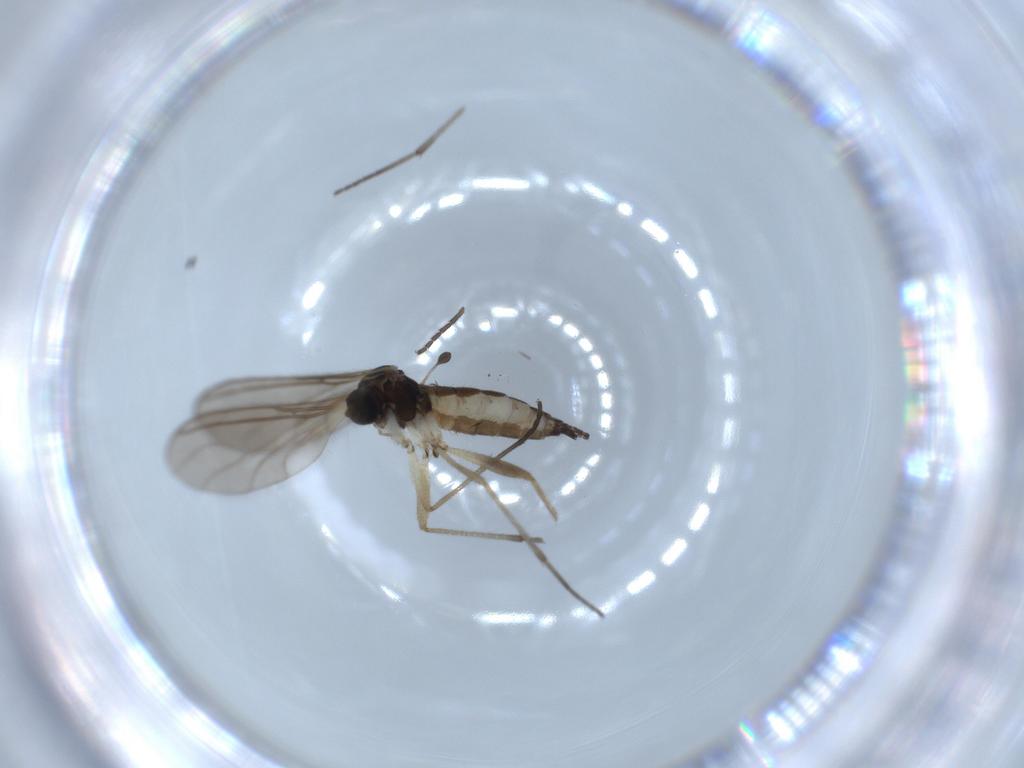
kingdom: Animalia
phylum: Arthropoda
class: Insecta
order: Diptera
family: Sciaridae
